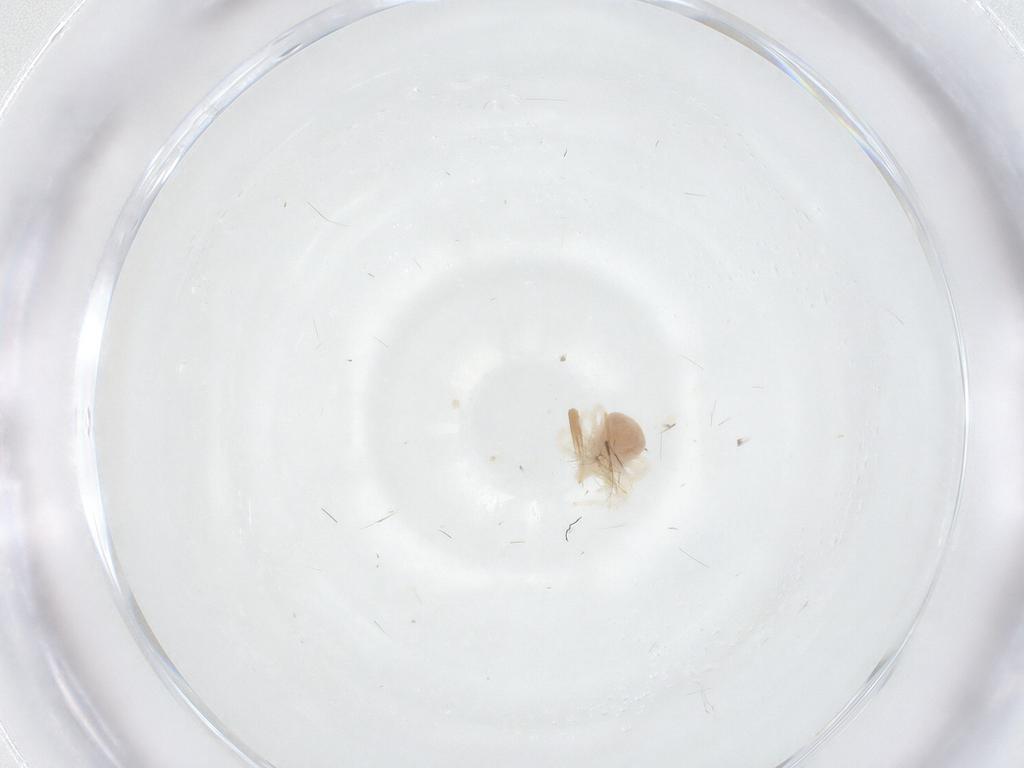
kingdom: Animalia
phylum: Arthropoda
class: Arachnida
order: Trombidiformes
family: Anystidae
